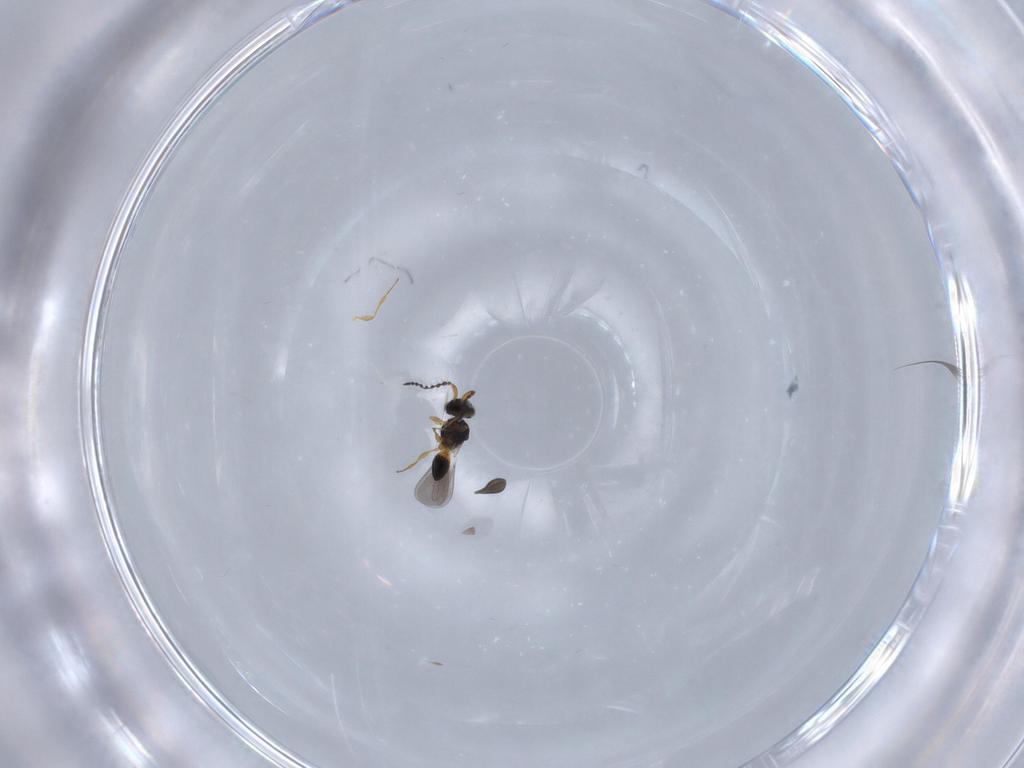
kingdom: Animalia
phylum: Arthropoda
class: Insecta
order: Hymenoptera
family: Platygastridae
